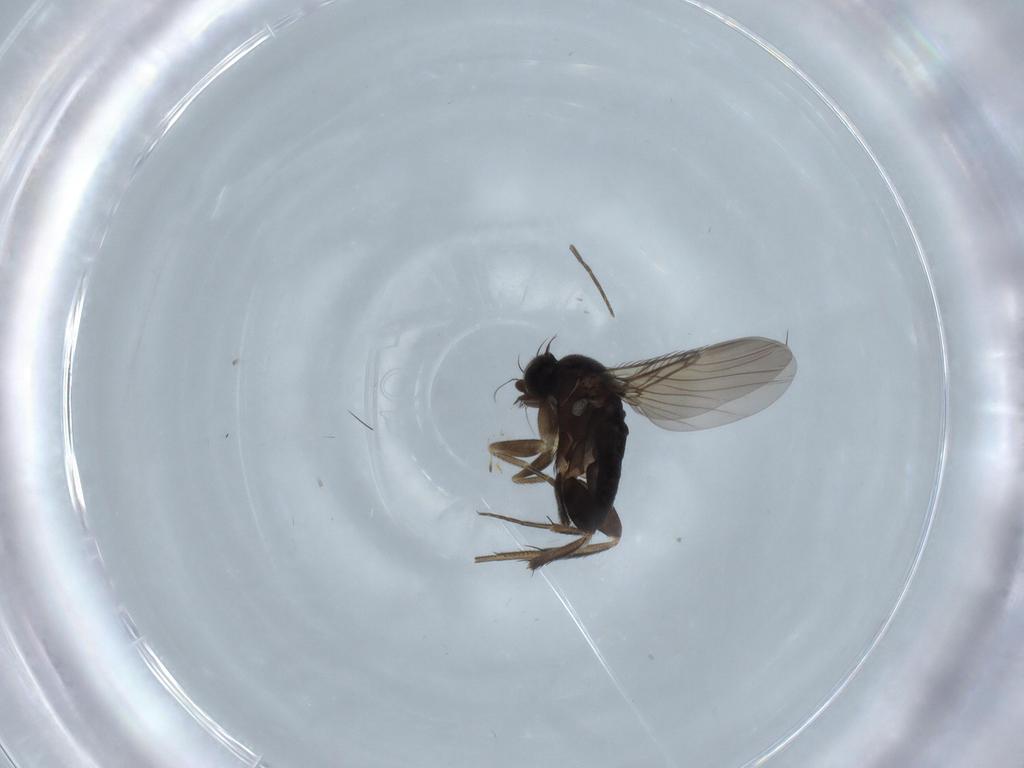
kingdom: Animalia
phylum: Arthropoda
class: Insecta
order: Diptera
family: Phoridae
